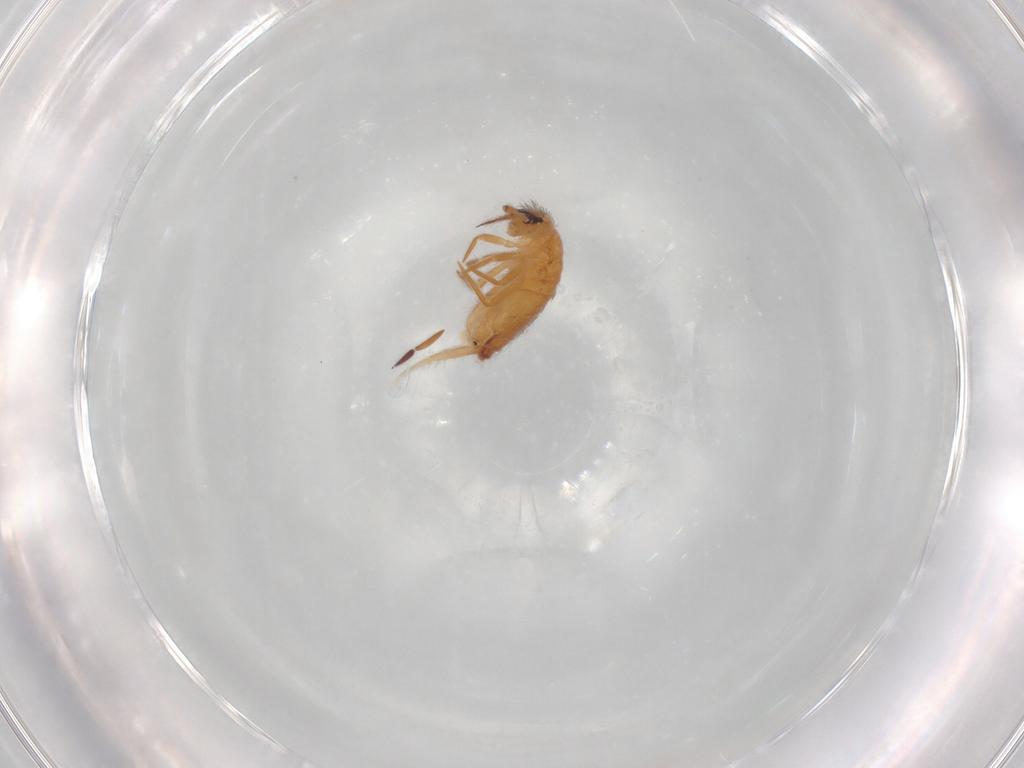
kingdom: Animalia
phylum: Arthropoda
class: Collembola
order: Entomobryomorpha
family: Entomobryidae
